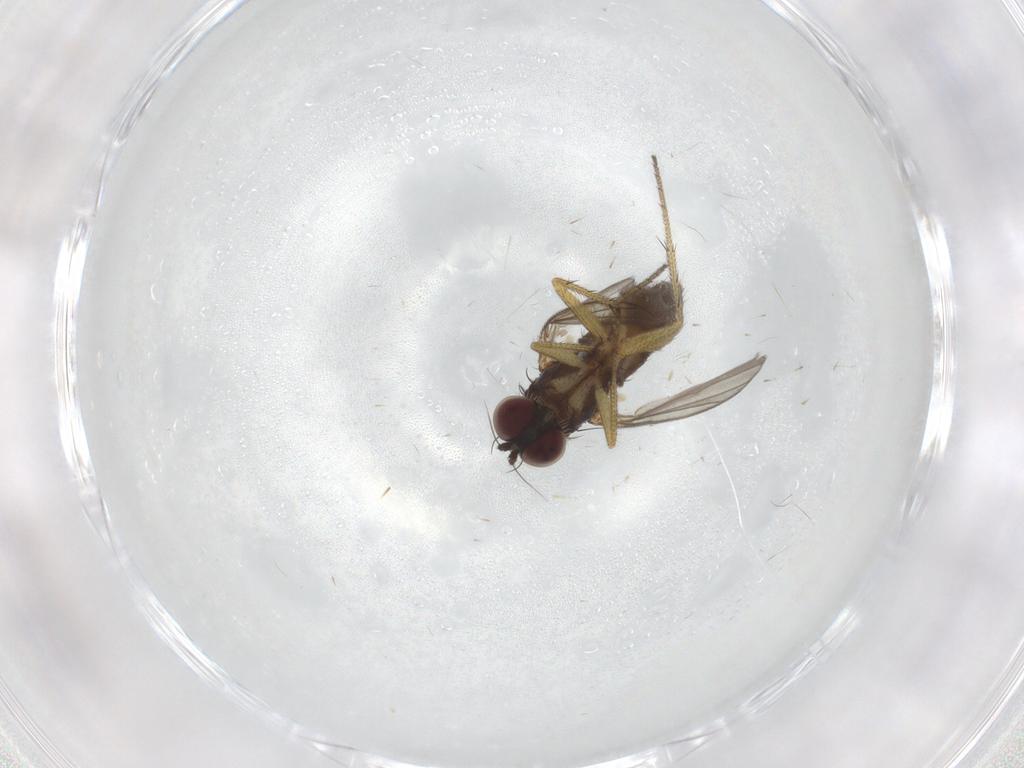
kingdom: Animalia
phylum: Arthropoda
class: Insecta
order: Diptera
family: Dolichopodidae
